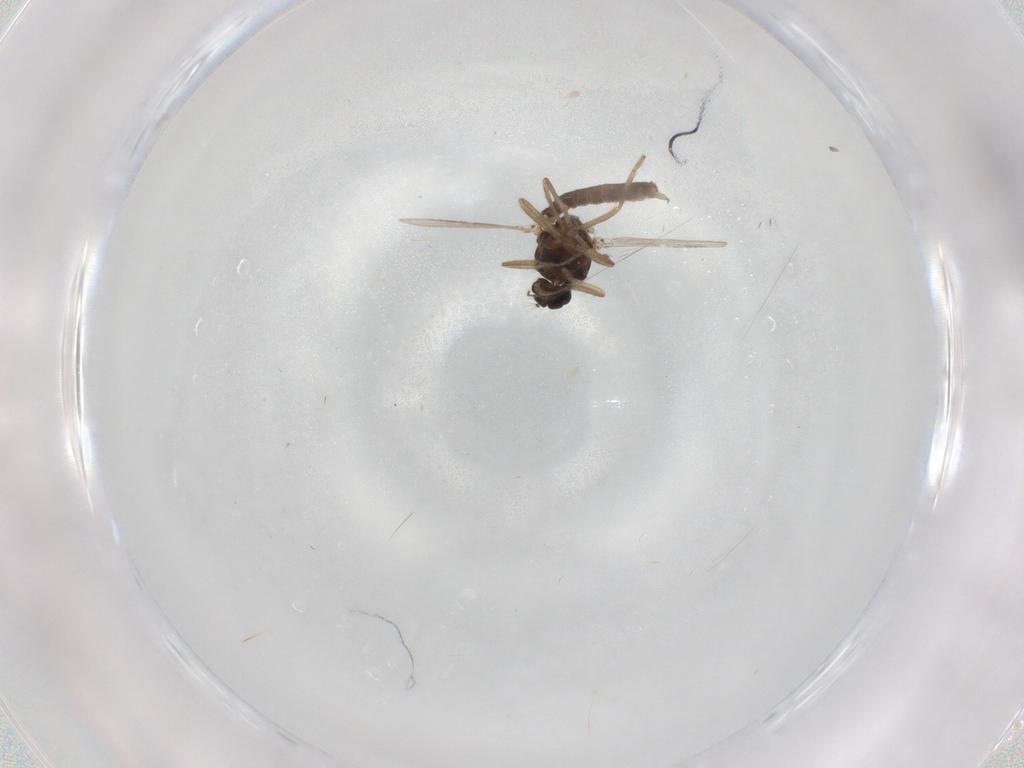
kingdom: Animalia
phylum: Arthropoda
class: Insecta
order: Diptera
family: Ceratopogonidae
